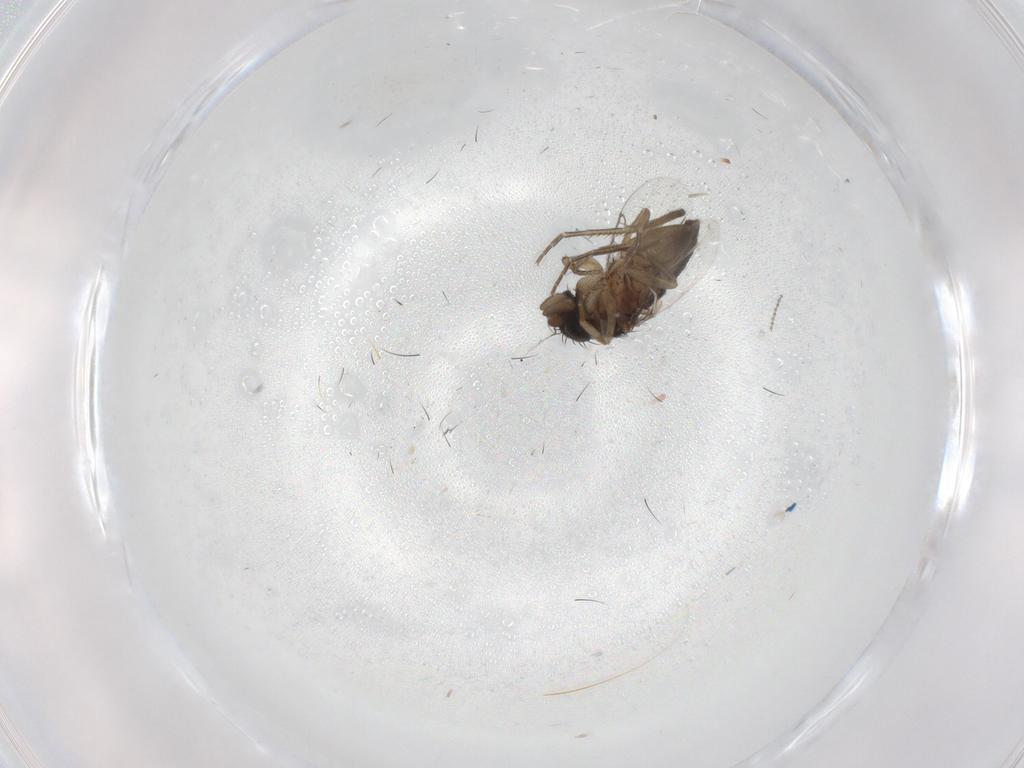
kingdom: Animalia
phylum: Arthropoda
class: Insecta
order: Diptera
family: Phoridae
